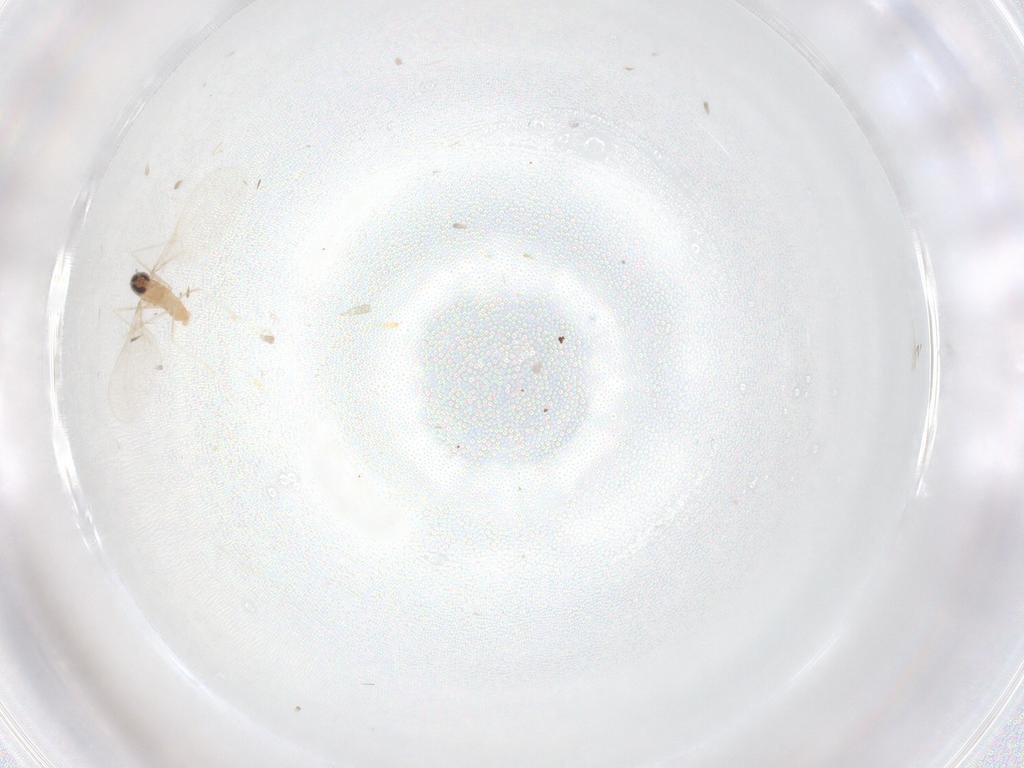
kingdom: Animalia
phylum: Arthropoda
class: Insecta
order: Diptera
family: Cecidomyiidae
